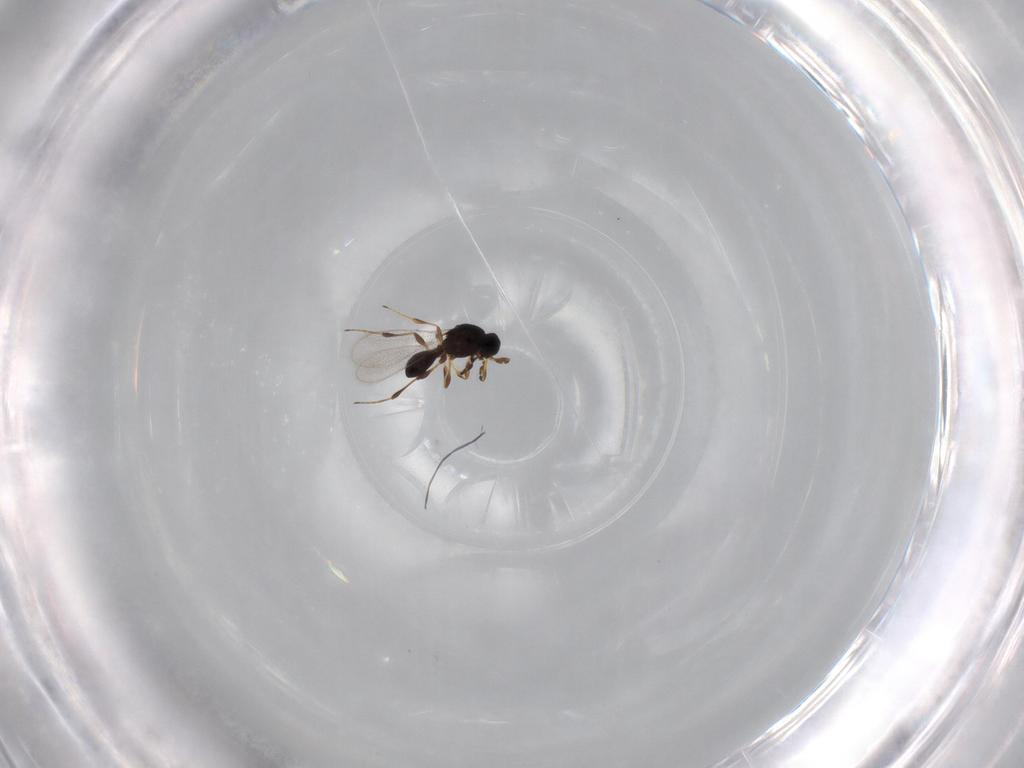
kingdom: Animalia
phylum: Arthropoda
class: Insecta
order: Hymenoptera
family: Platygastridae
